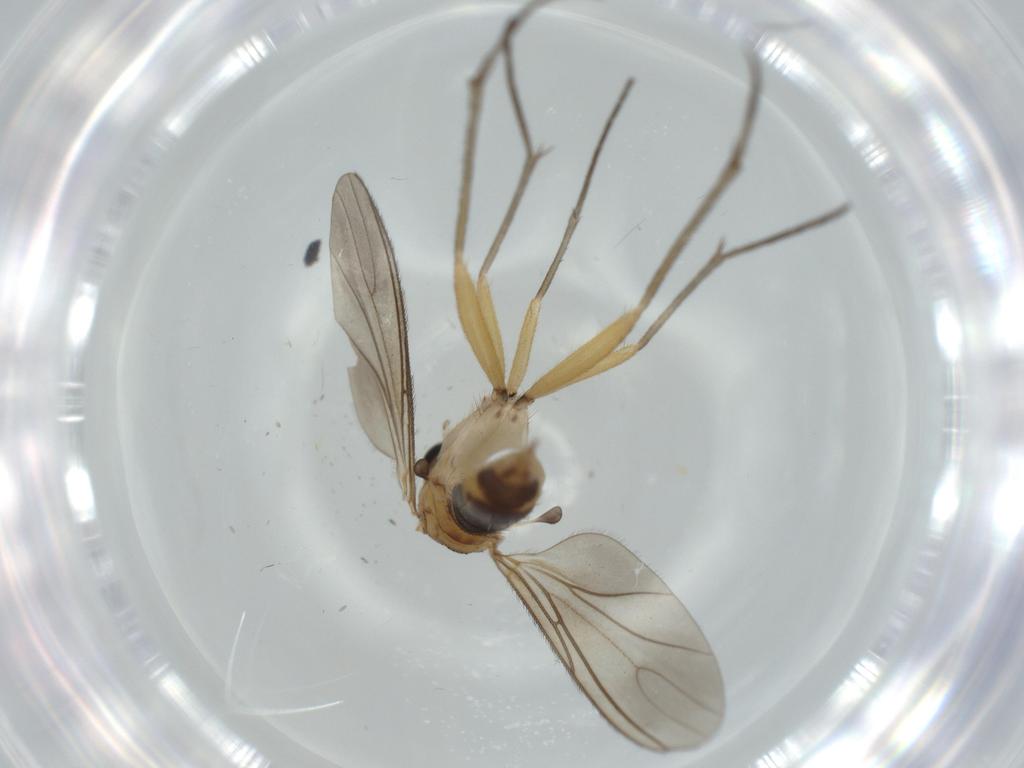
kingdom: Animalia
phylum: Arthropoda
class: Insecta
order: Diptera
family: Sciaridae
